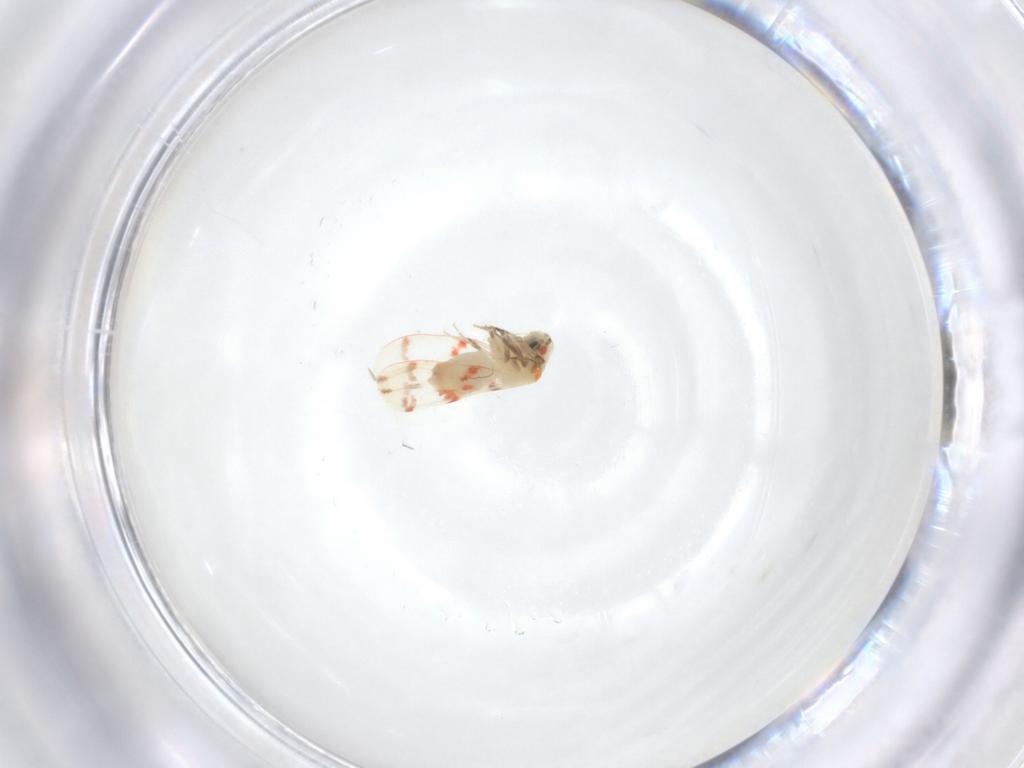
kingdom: Animalia
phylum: Arthropoda
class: Insecta
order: Hemiptera
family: Aleyrodidae
